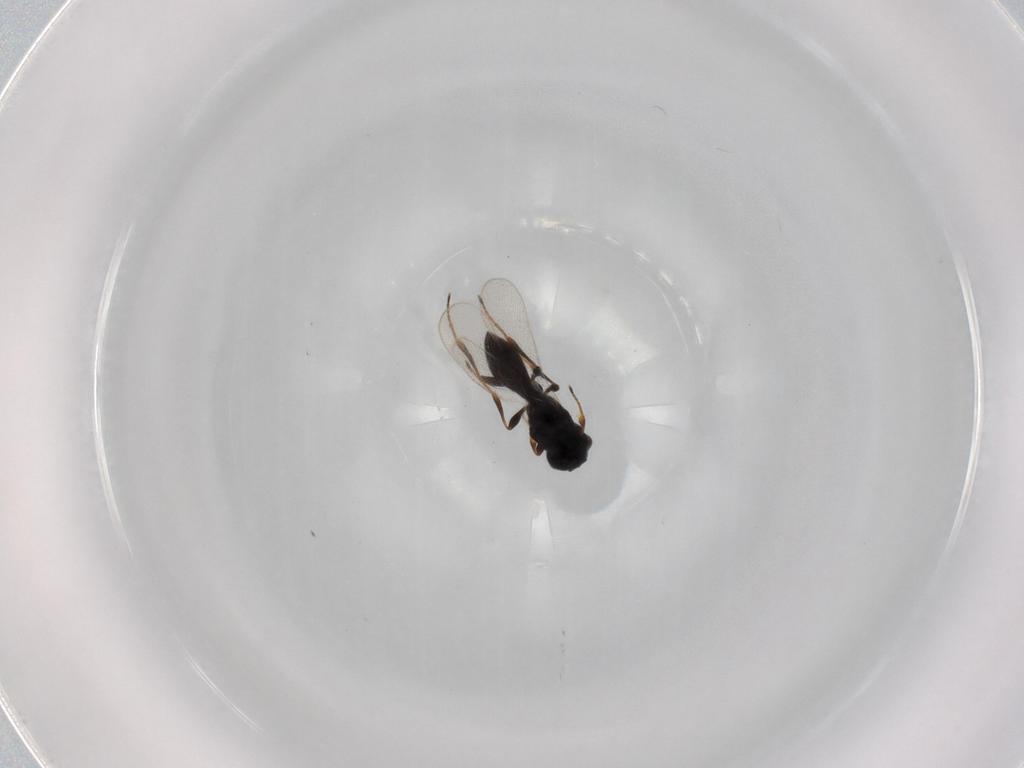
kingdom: Animalia
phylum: Arthropoda
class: Insecta
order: Hymenoptera
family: Platygastridae
